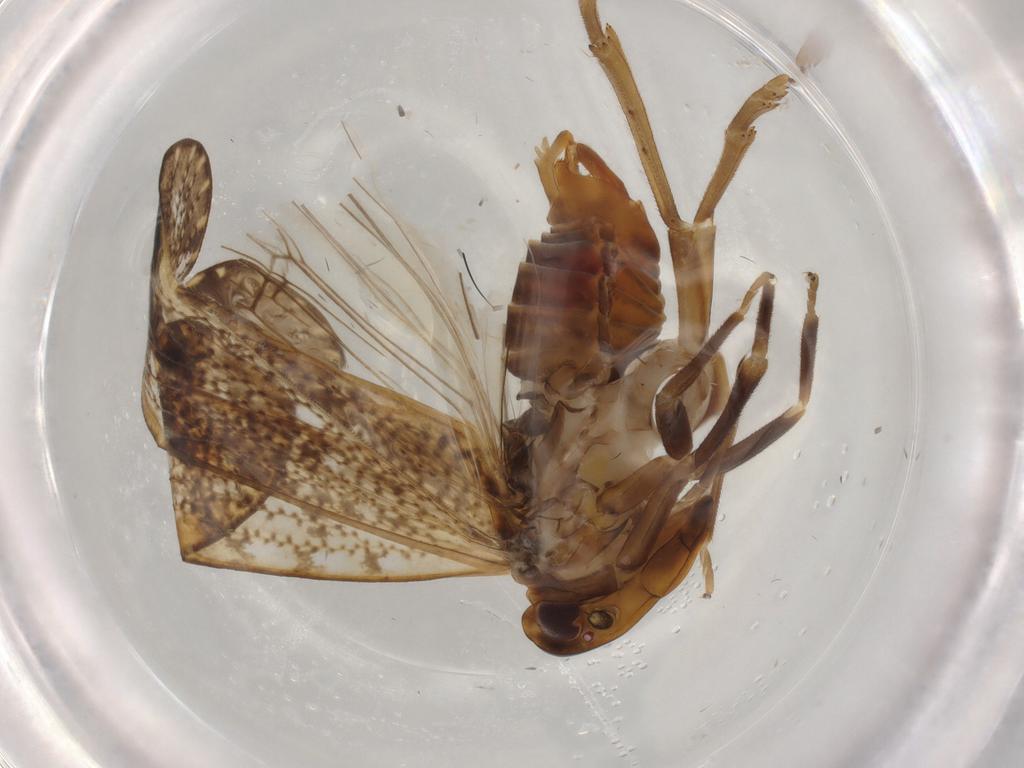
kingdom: Animalia
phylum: Arthropoda
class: Insecta
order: Hemiptera
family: Cixiidae
